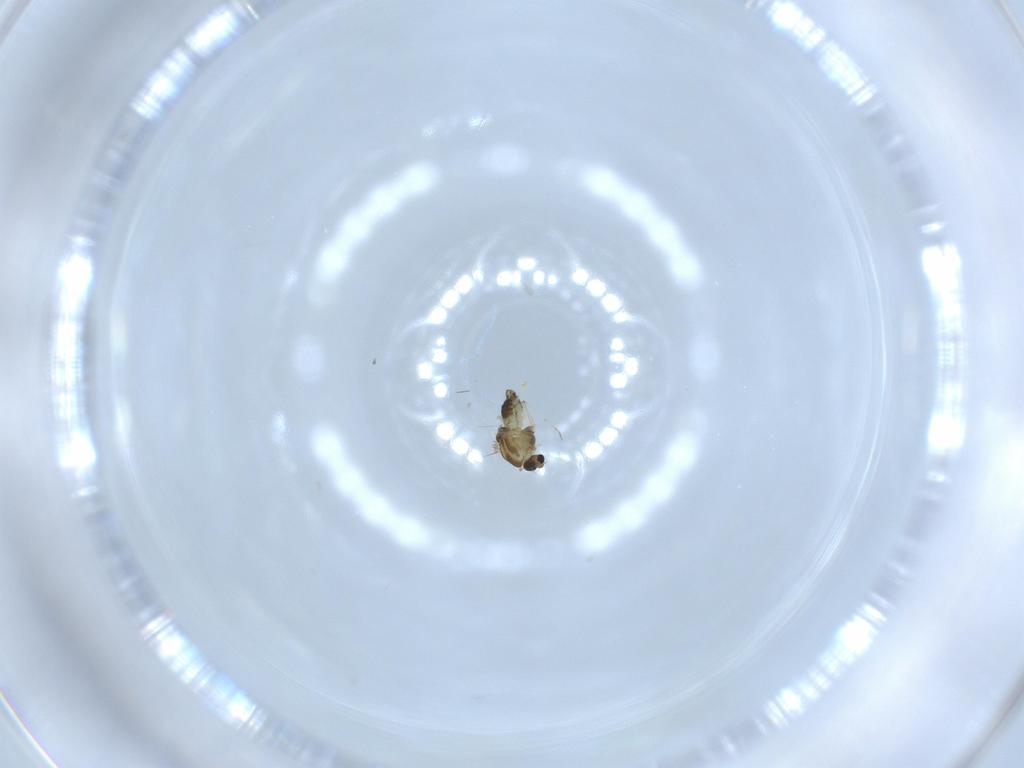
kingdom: Animalia
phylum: Arthropoda
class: Insecta
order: Diptera
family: Chironomidae
